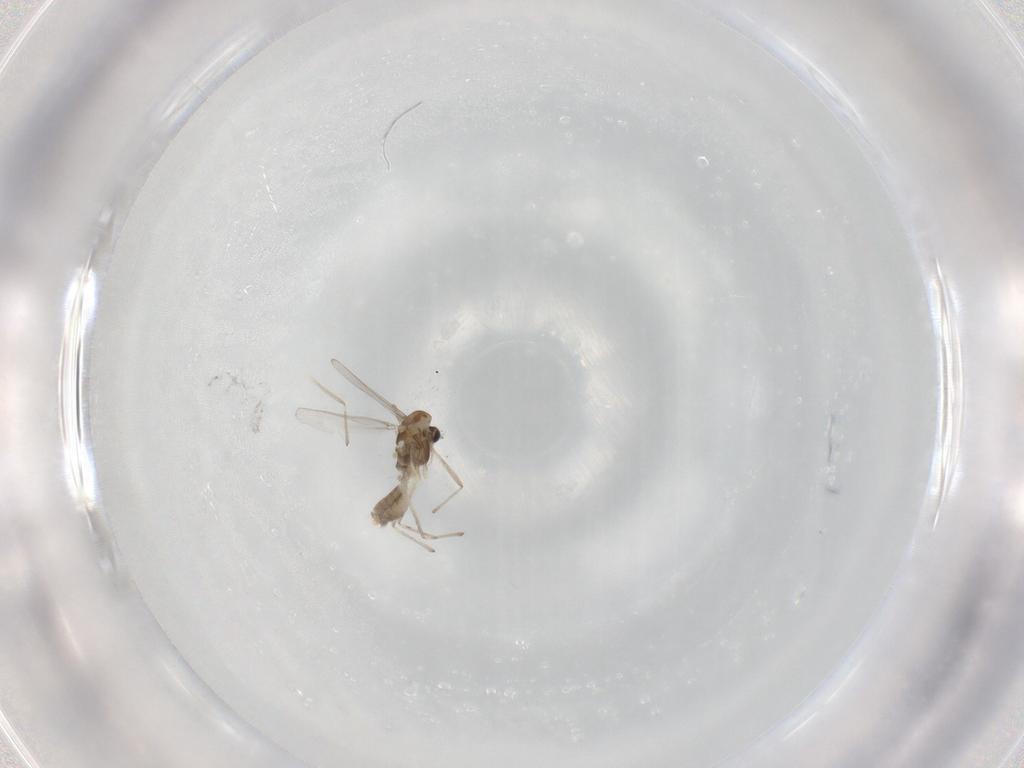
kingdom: Animalia
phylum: Arthropoda
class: Insecta
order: Diptera
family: Chironomidae
